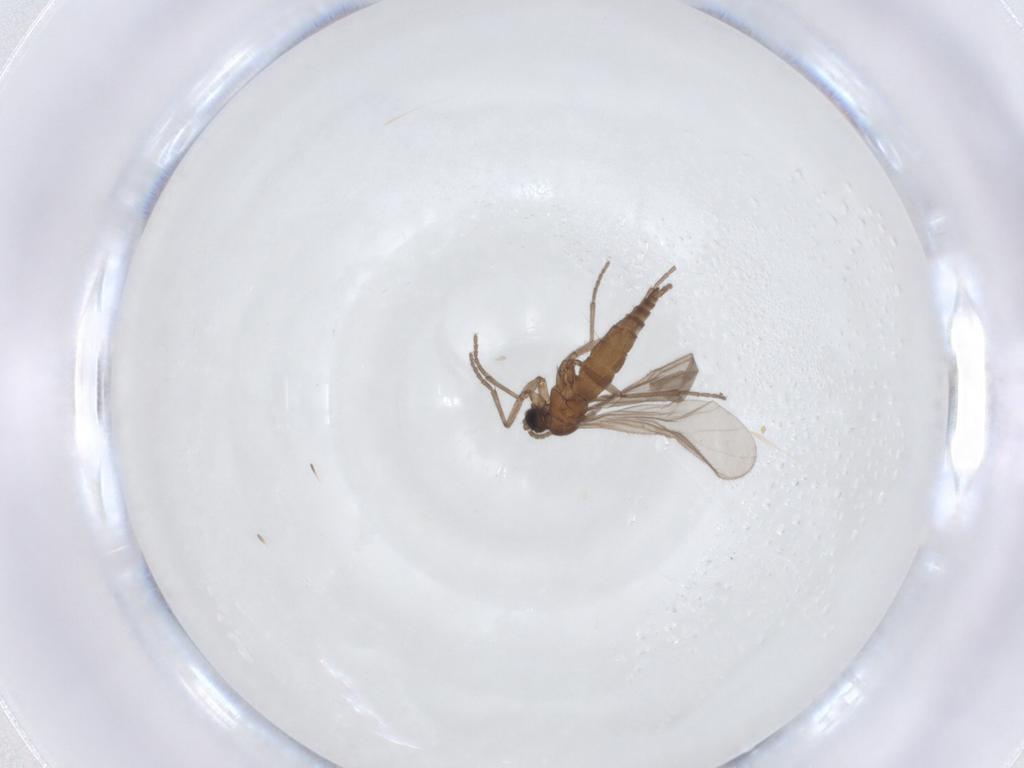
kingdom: Animalia
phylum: Arthropoda
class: Insecta
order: Diptera
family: Sciaridae
